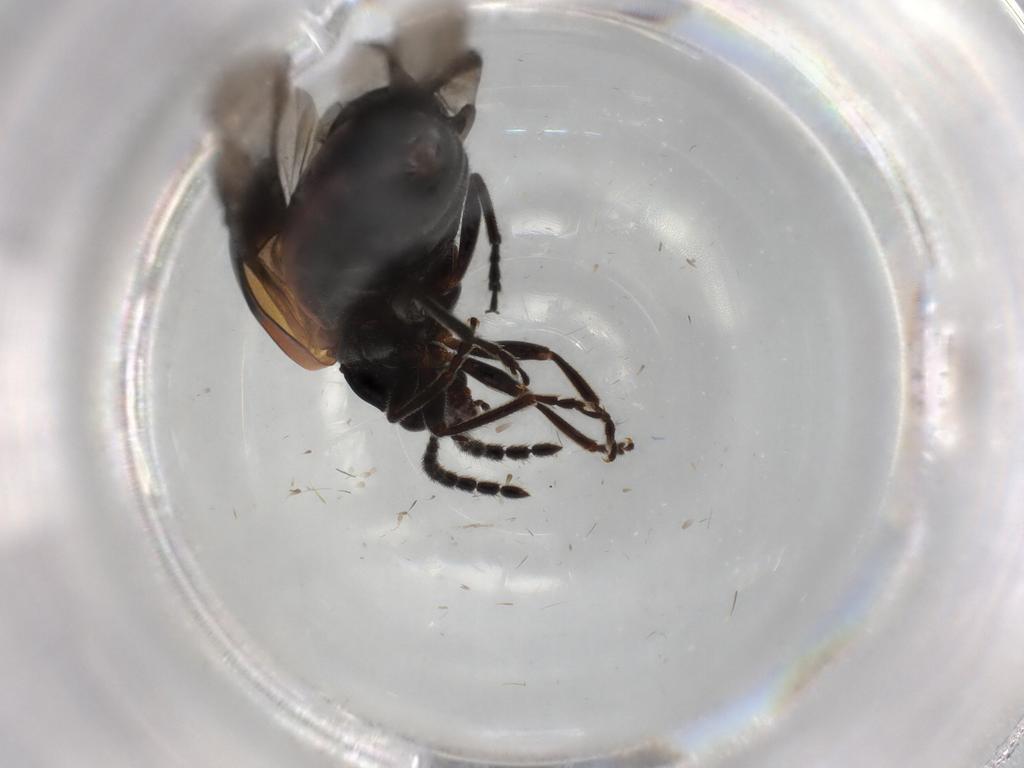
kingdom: Animalia
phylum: Arthropoda
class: Insecta
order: Coleoptera
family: Chrysomelidae
